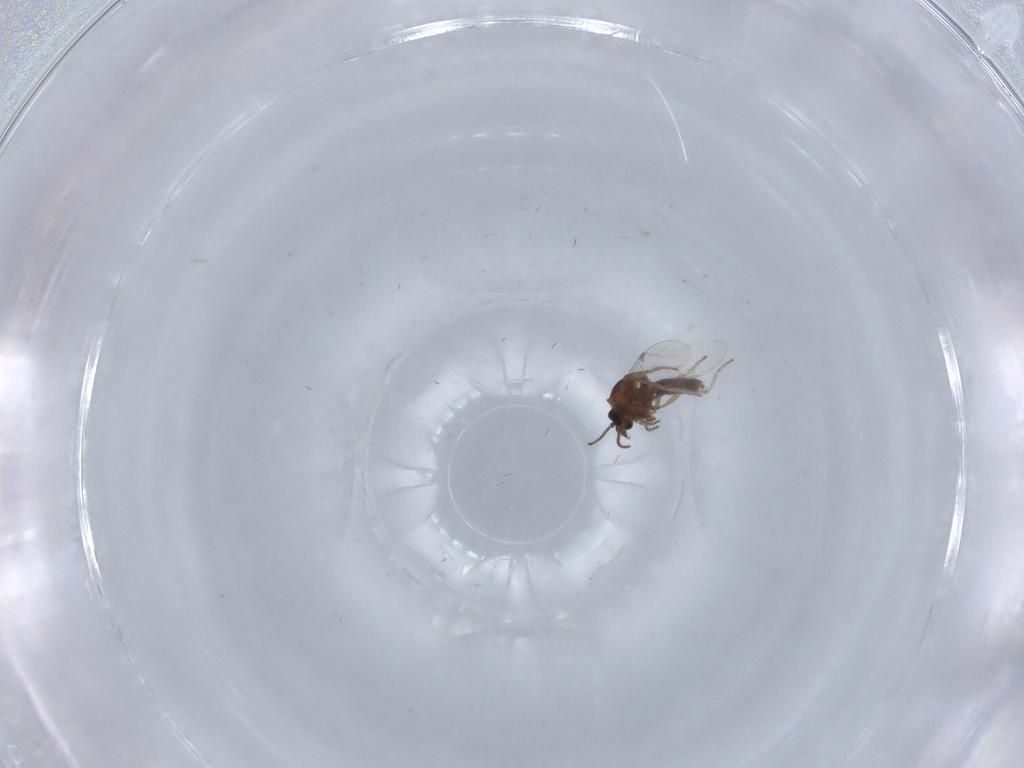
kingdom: Animalia
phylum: Arthropoda
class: Insecta
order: Diptera
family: Ceratopogonidae
